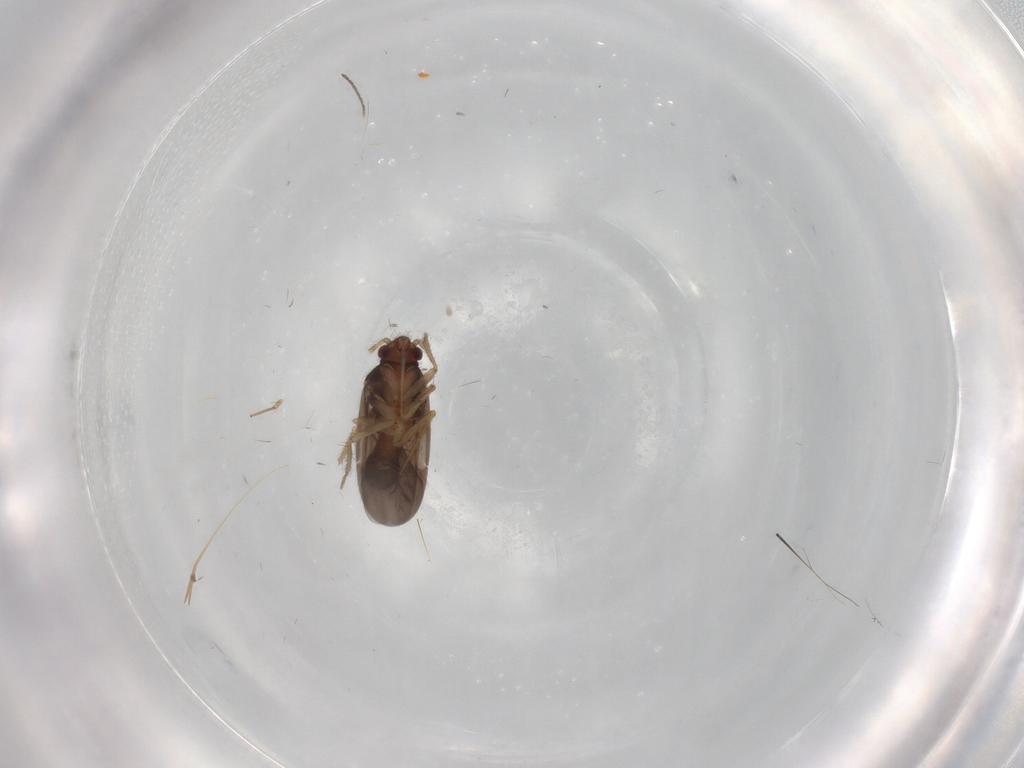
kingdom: Animalia
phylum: Arthropoda
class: Insecta
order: Hemiptera
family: Ceratocombidae
